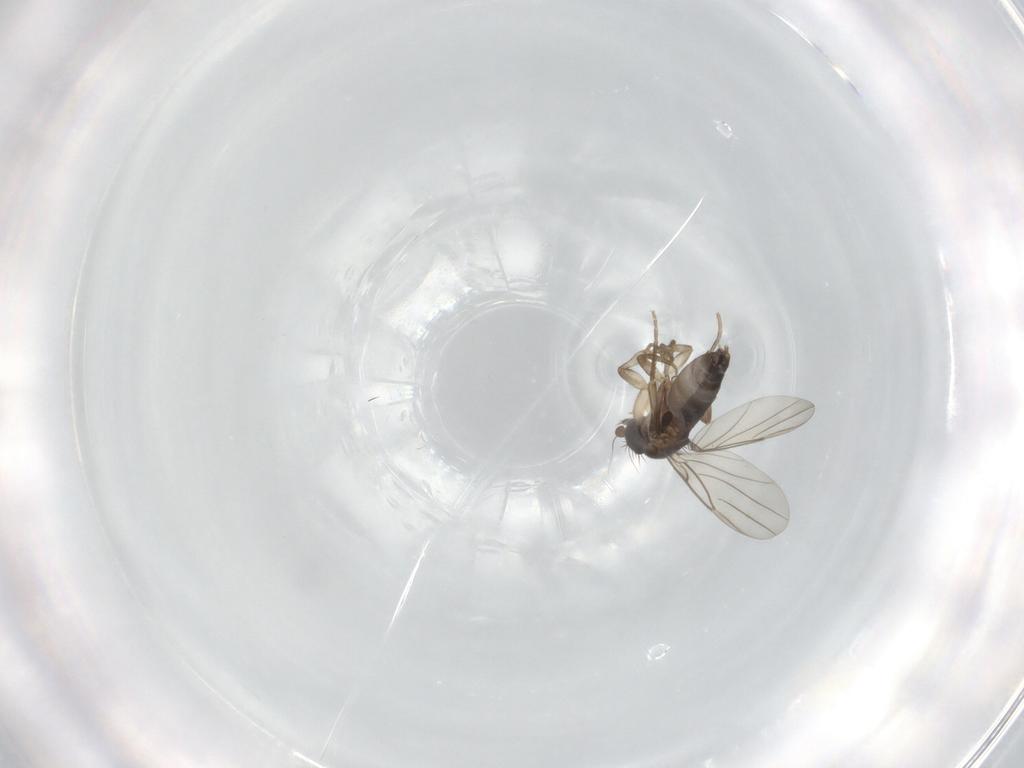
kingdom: Animalia
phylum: Arthropoda
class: Insecta
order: Diptera
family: Phoridae
